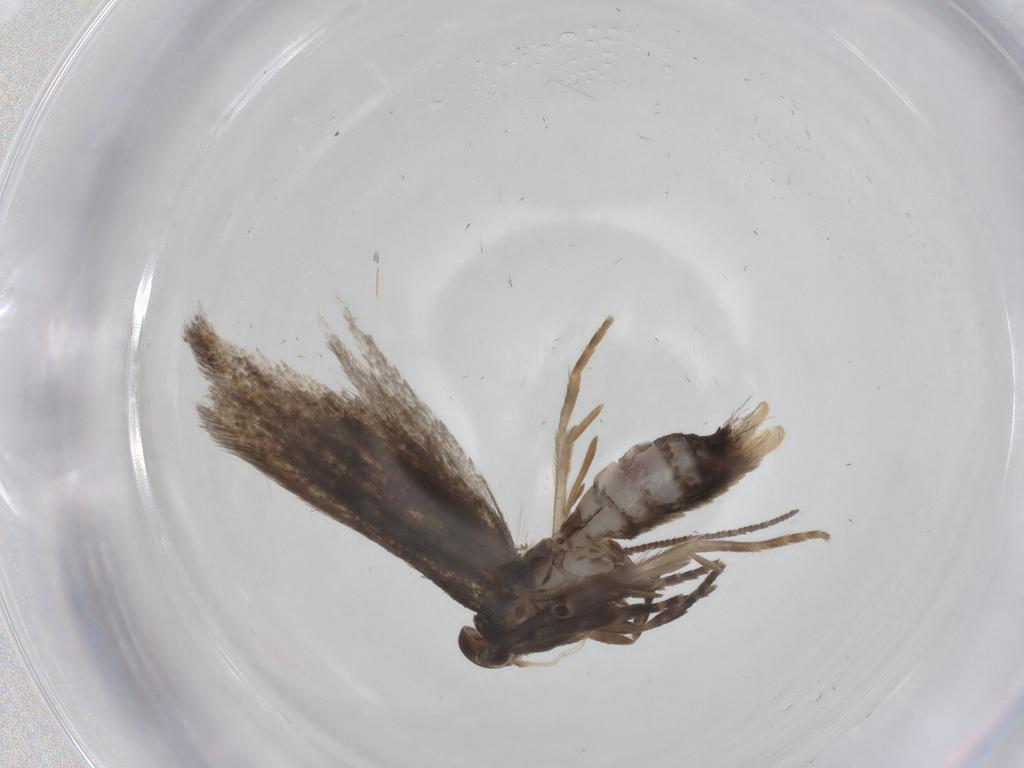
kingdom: Animalia
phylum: Arthropoda
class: Insecta
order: Lepidoptera
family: Elachistidae
